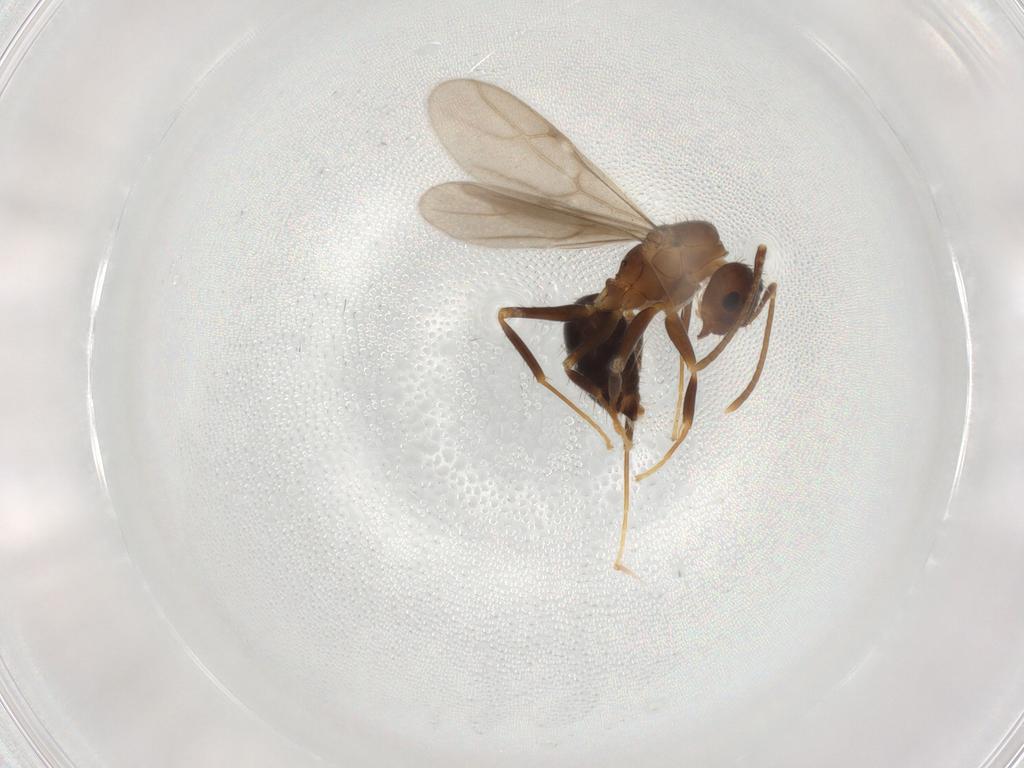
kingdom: Animalia
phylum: Arthropoda
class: Insecta
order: Hymenoptera
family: Formicidae
